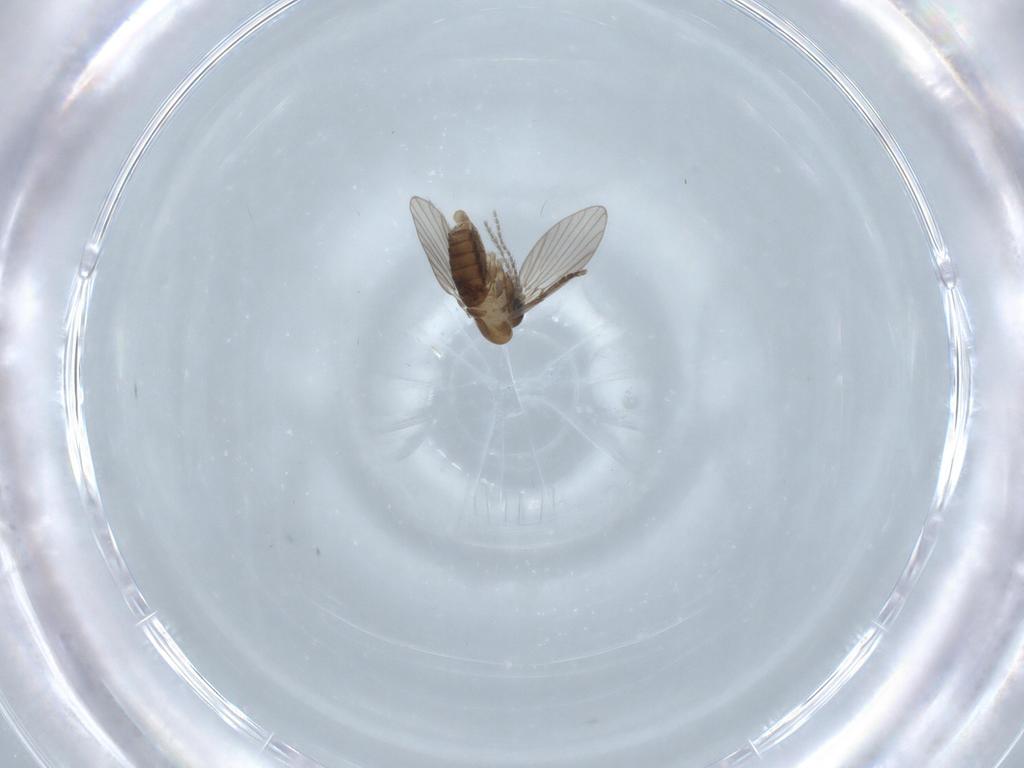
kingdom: Animalia
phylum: Arthropoda
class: Insecta
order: Diptera
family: Psychodidae
